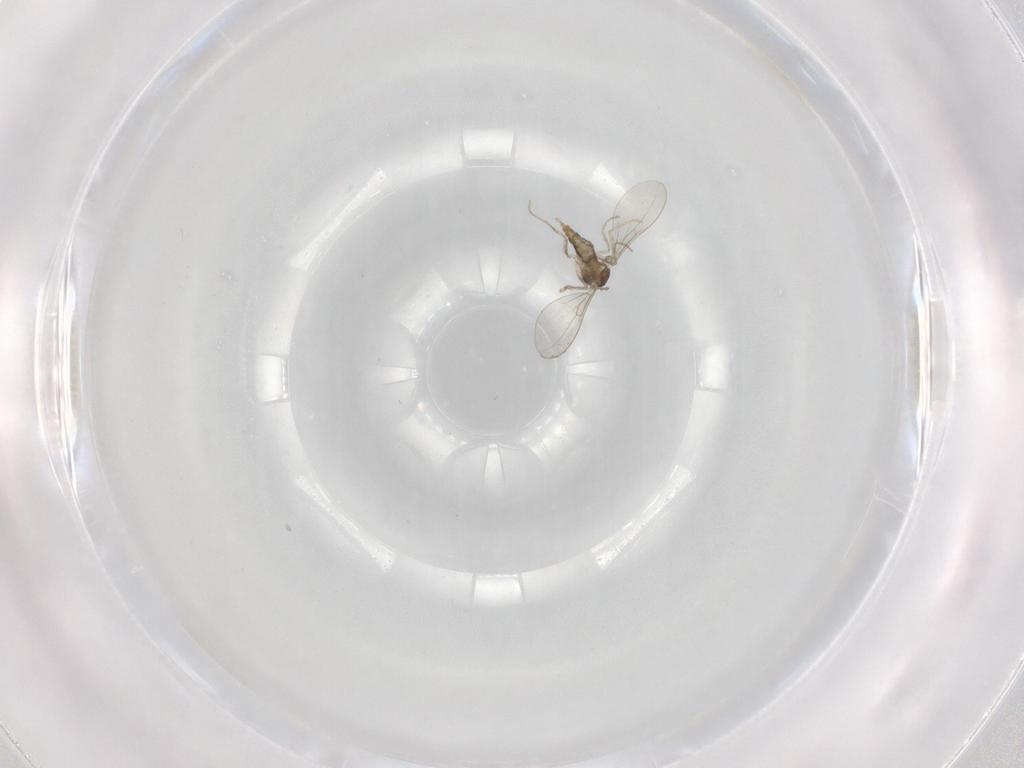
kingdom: Animalia
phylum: Arthropoda
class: Insecta
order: Diptera
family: Cecidomyiidae
